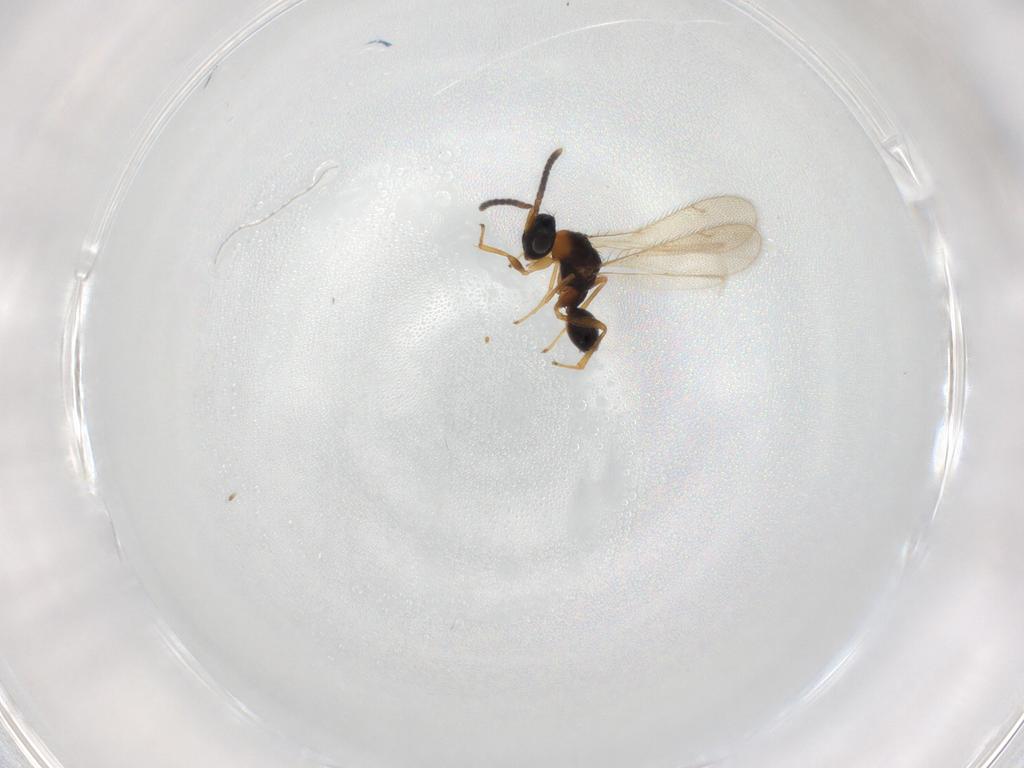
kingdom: Animalia
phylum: Arthropoda
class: Insecta
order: Hymenoptera
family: Diparidae
